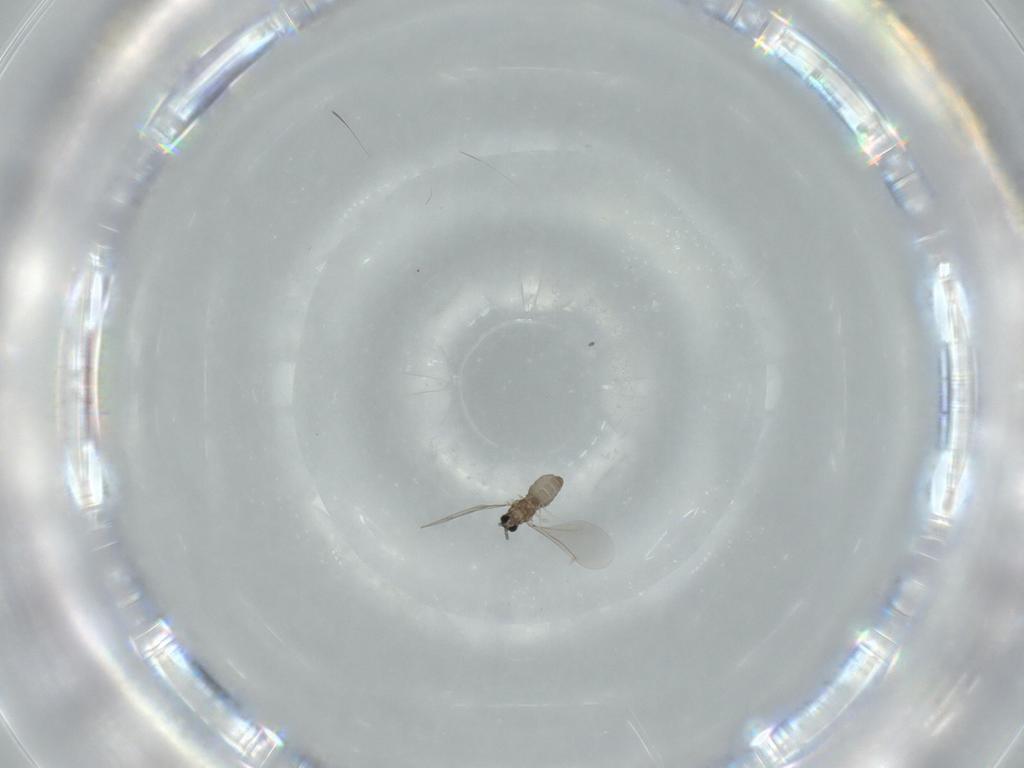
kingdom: Animalia
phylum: Arthropoda
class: Insecta
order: Diptera
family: Cecidomyiidae
